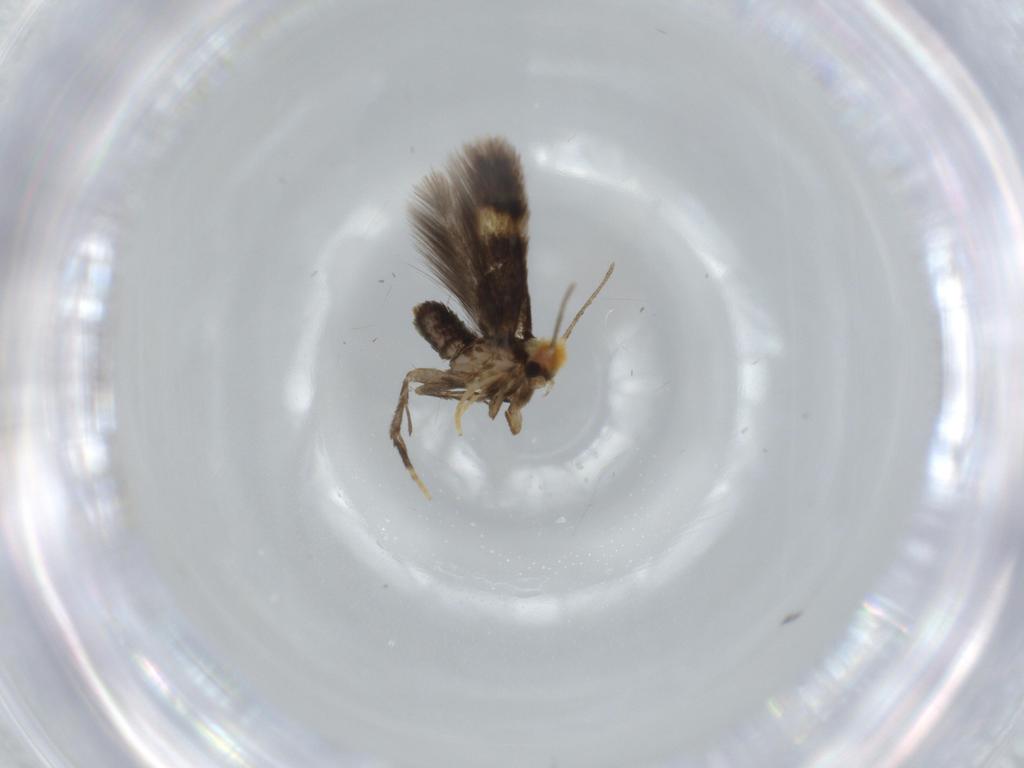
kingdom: Animalia
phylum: Arthropoda
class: Insecta
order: Lepidoptera
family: Nepticulidae
